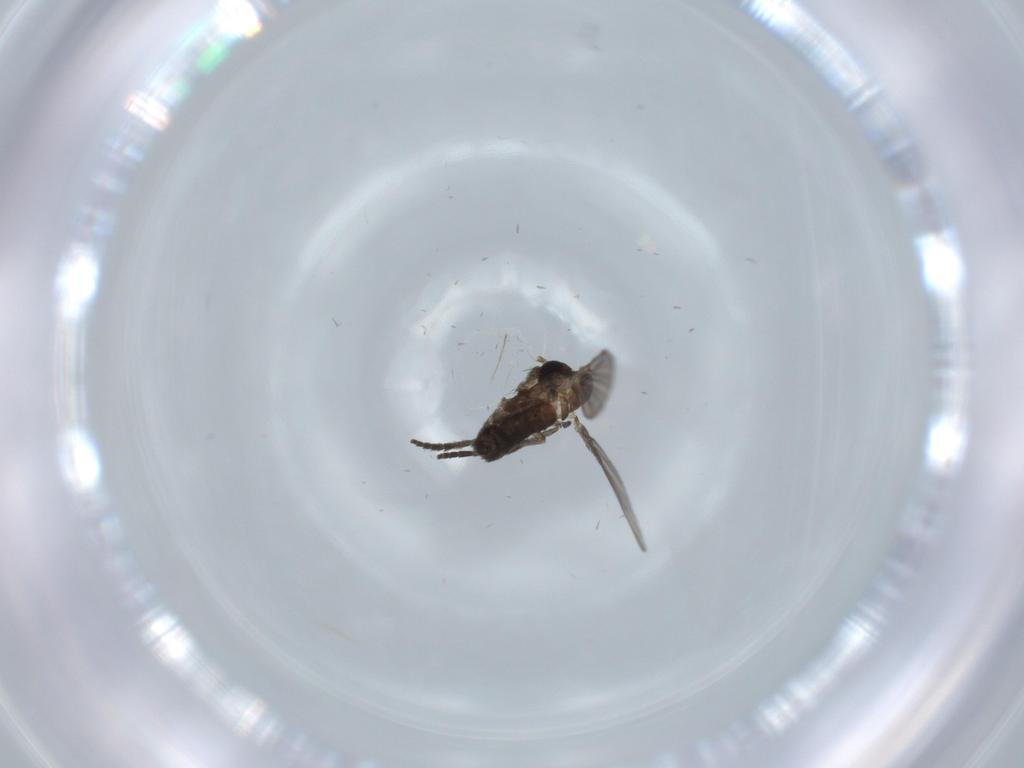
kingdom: Animalia
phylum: Arthropoda
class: Insecta
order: Diptera
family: Psychodidae
